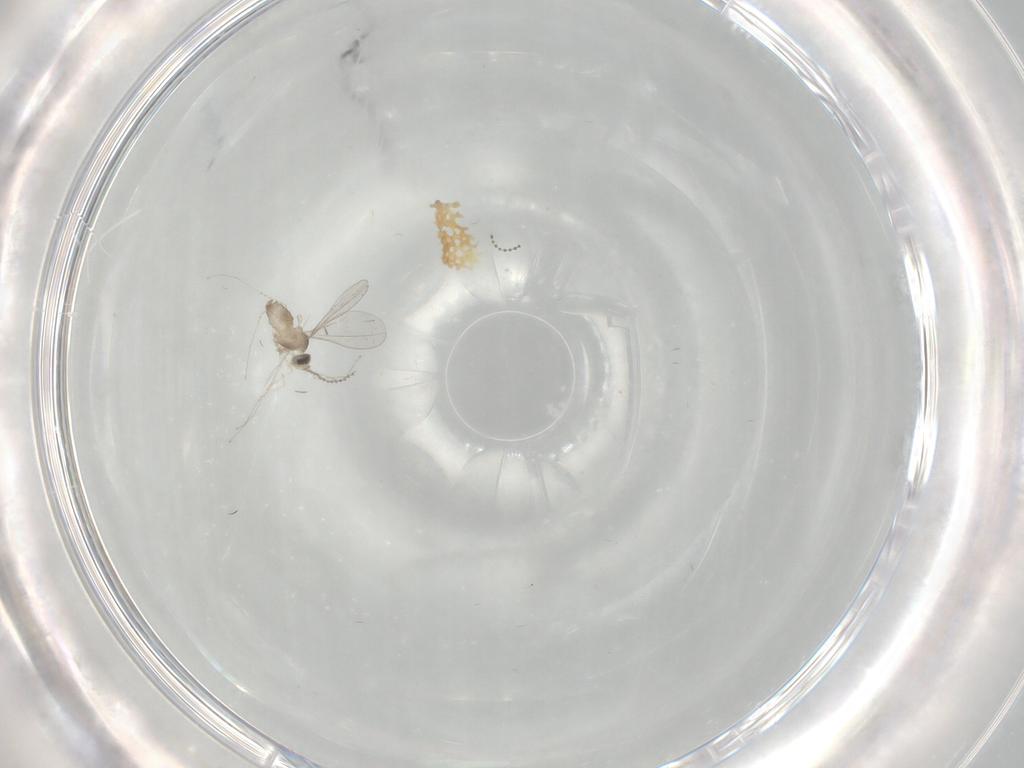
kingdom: Animalia
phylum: Arthropoda
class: Insecta
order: Diptera
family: Cecidomyiidae
